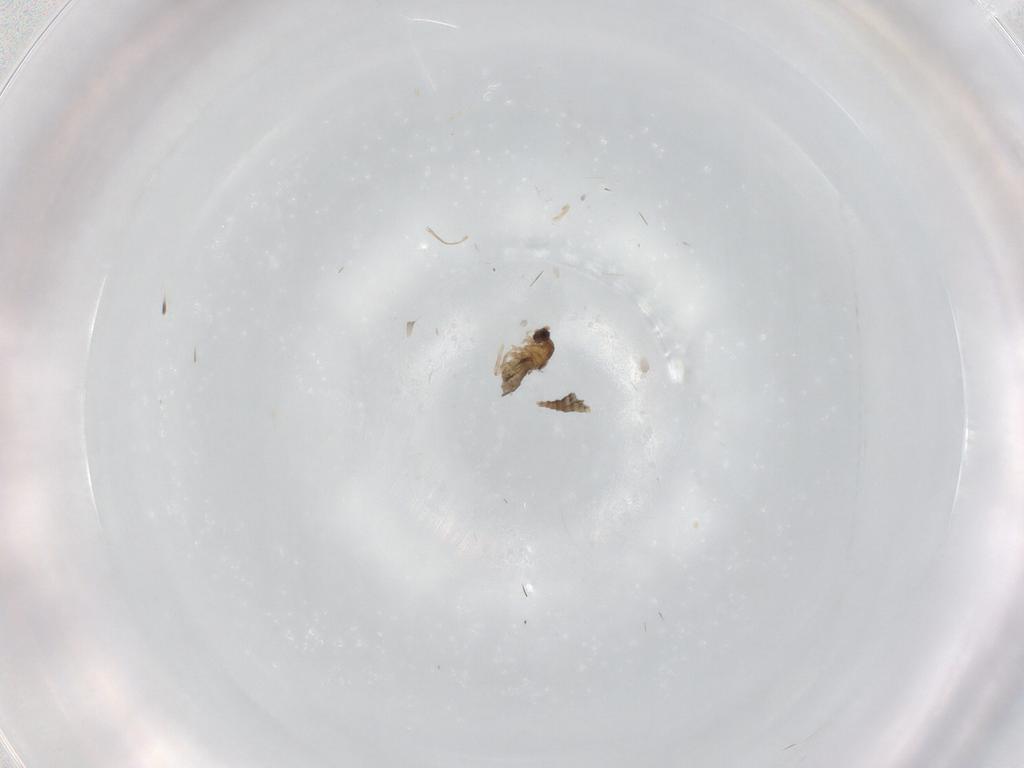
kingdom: Animalia
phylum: Arthropoda
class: Insecta
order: Diptera
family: Cecidomyiidae
